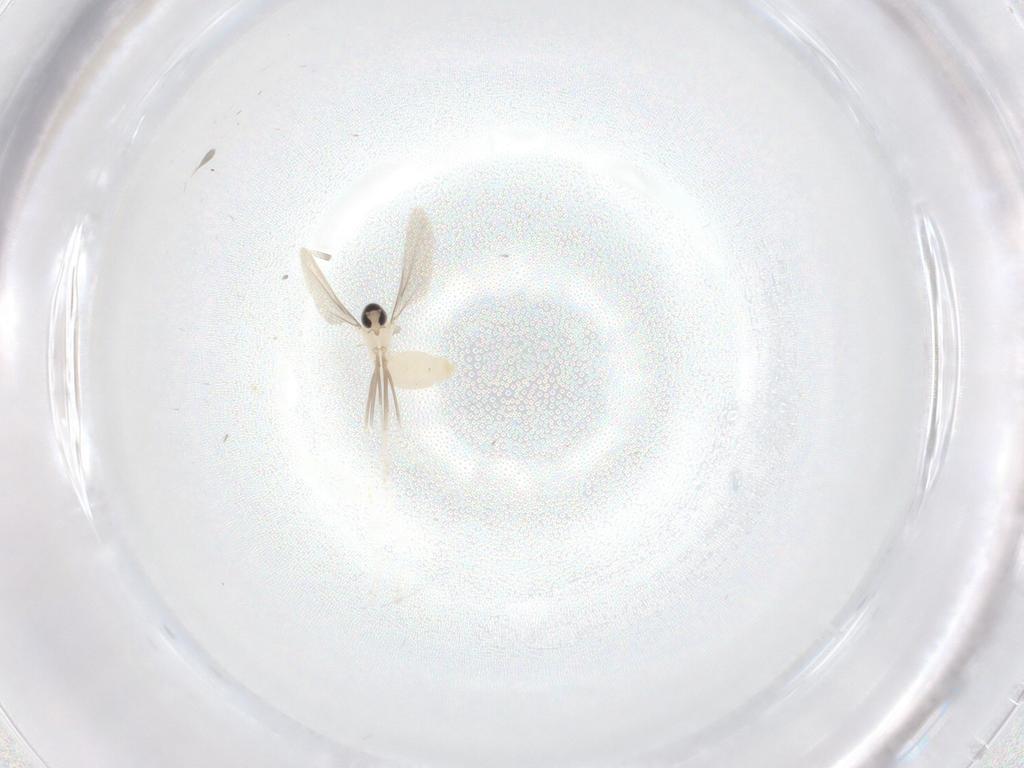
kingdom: Animalia
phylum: Arthropoda
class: Insecta
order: Diptera
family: Cecidomyiidae
